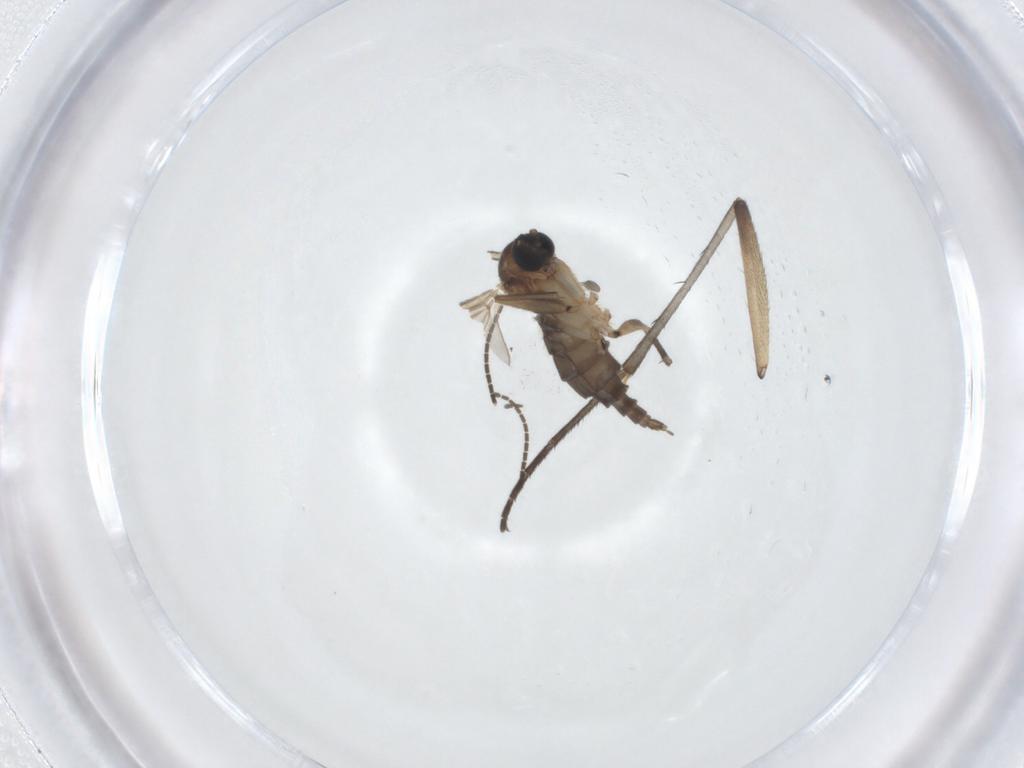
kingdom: Animalia
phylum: Arthropoda
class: Insecta
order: Diptera
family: Sciaridae
